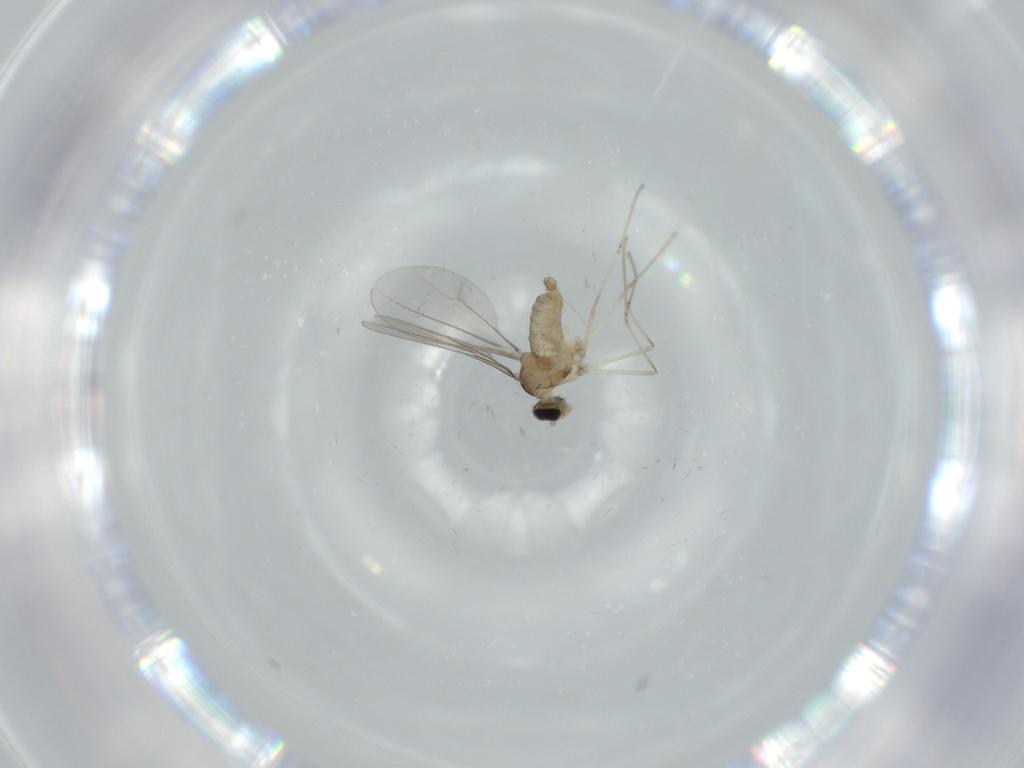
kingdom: Animalia
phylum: Arthropoda
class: Insecta
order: Diptera
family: Cecidomyiidae
